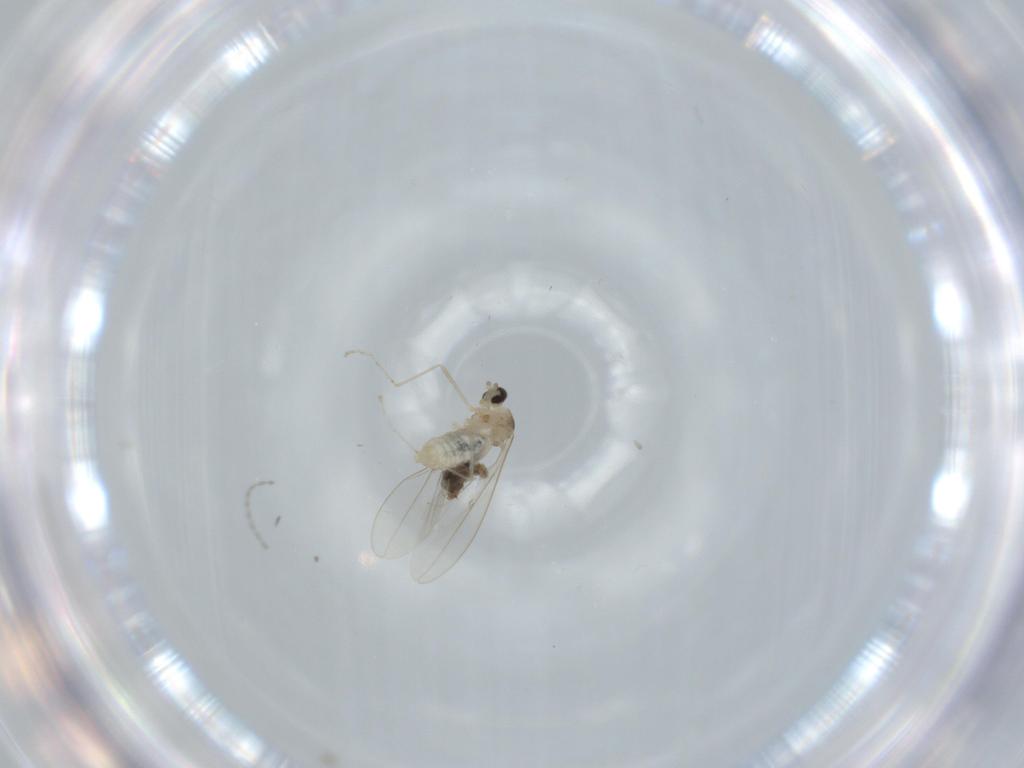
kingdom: Animalia
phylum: Arthropoda
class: Insecta
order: Diptera
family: Cecidomyiidae
